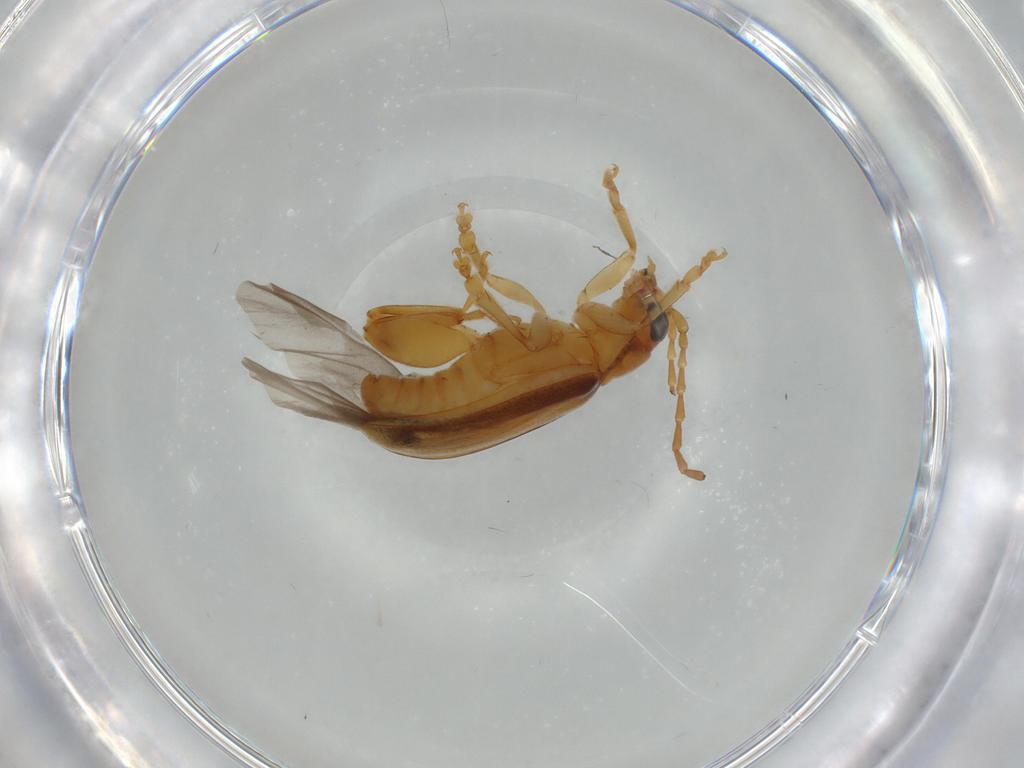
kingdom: Animalia
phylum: Arthropoda
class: Insecta
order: Coleoptera
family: Chrysomelidae
